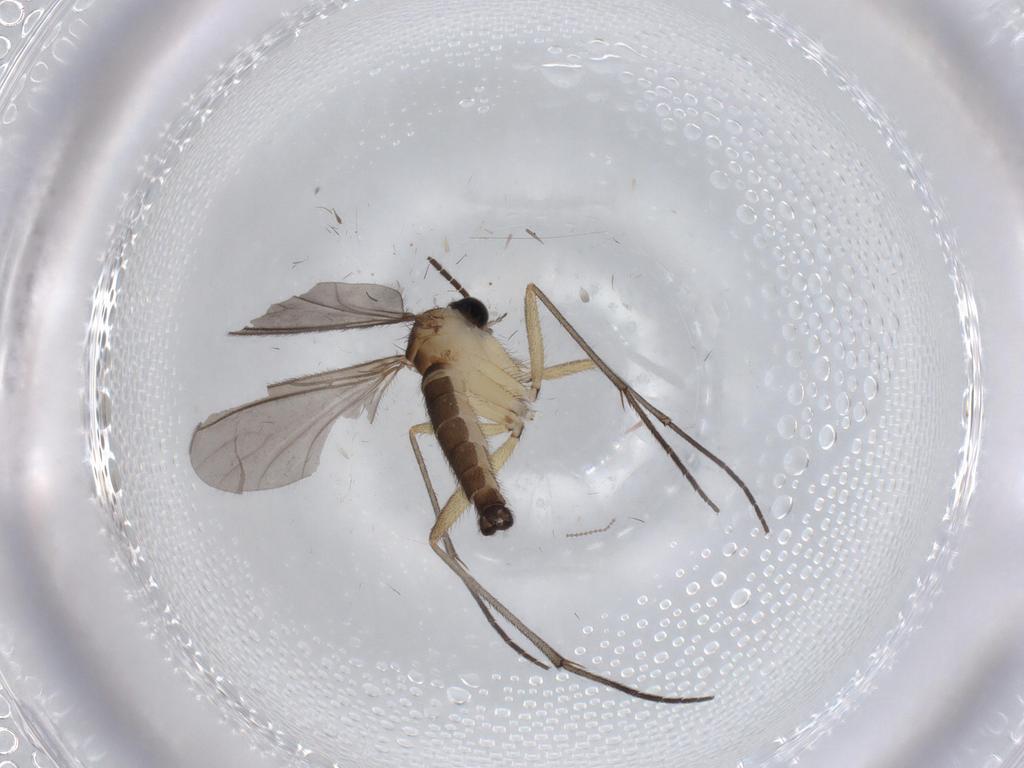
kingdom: Animalia
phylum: Arthropoda
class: Insecta
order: Diptera
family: Sciaridae
